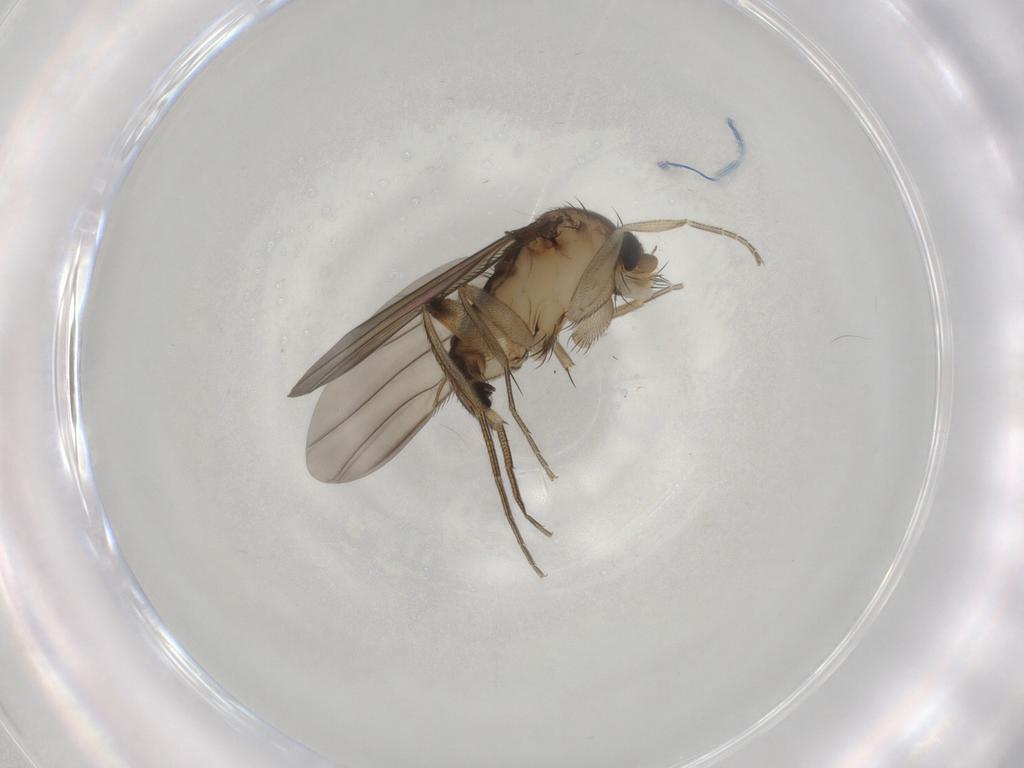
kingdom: Animalia
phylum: Arthropoda
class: Insecta
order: Diptera
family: Phoridae
